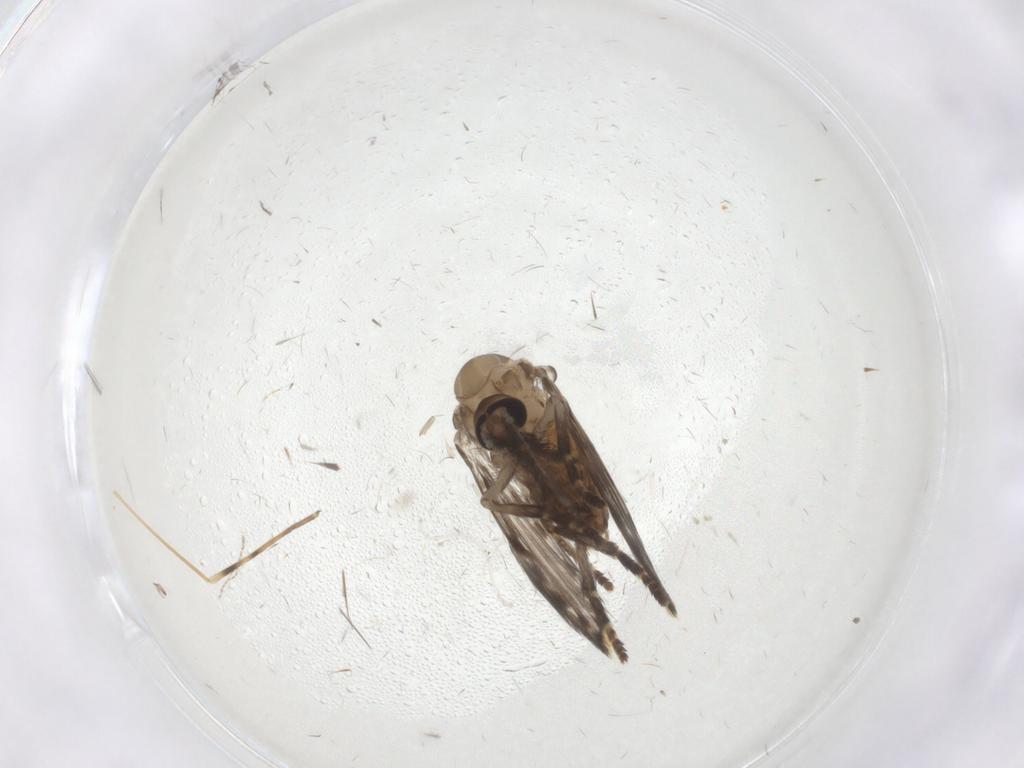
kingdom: Animalia
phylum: Arthropoda
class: Insecta
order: Diptera
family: Psychodidae
